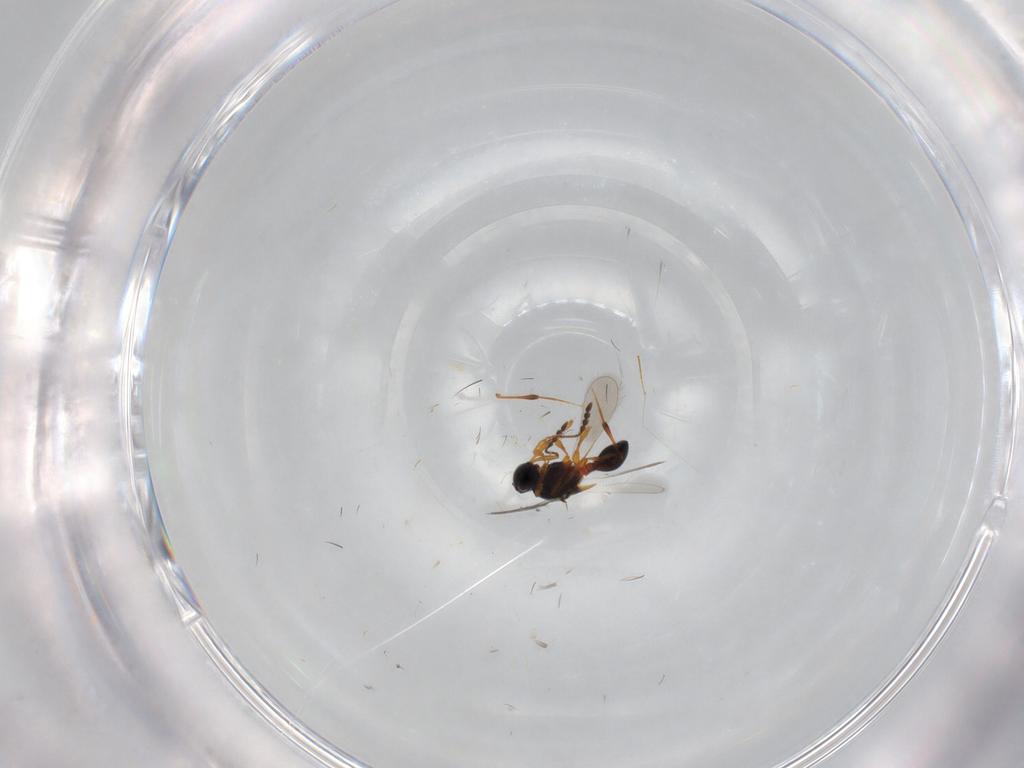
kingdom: Animalia
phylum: Arthropoda
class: Insecta
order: Hymenoptera
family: Platygastridae
